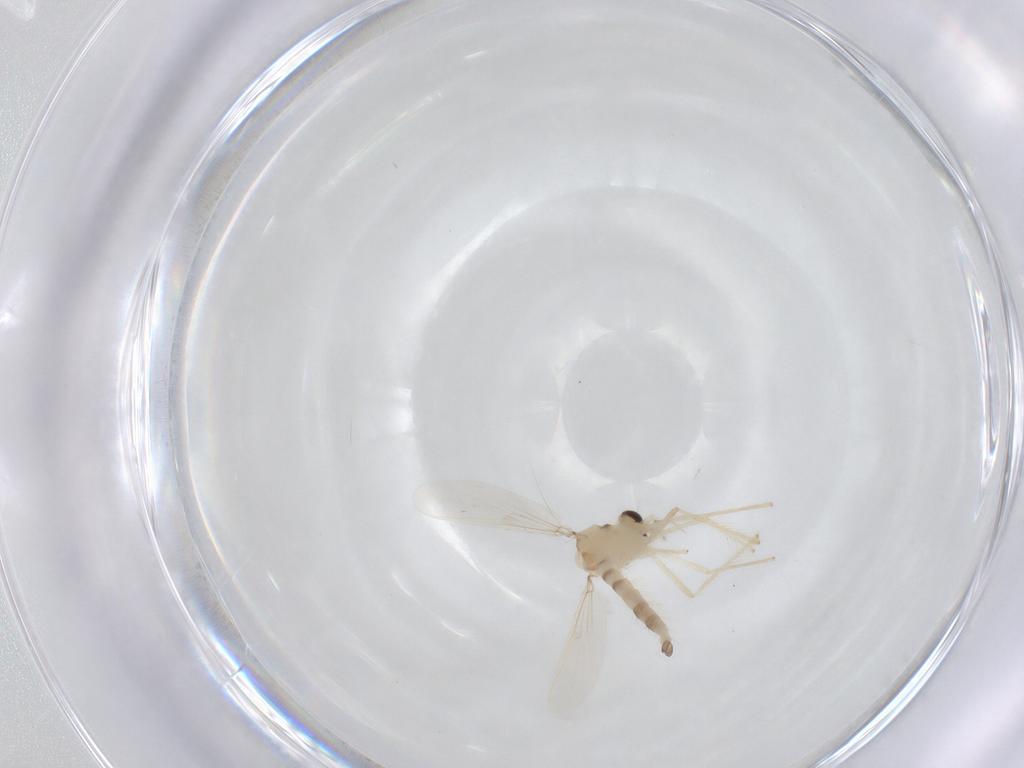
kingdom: Animalia
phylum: Arthropoda
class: Insecta
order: Diptera
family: Chironomidae
